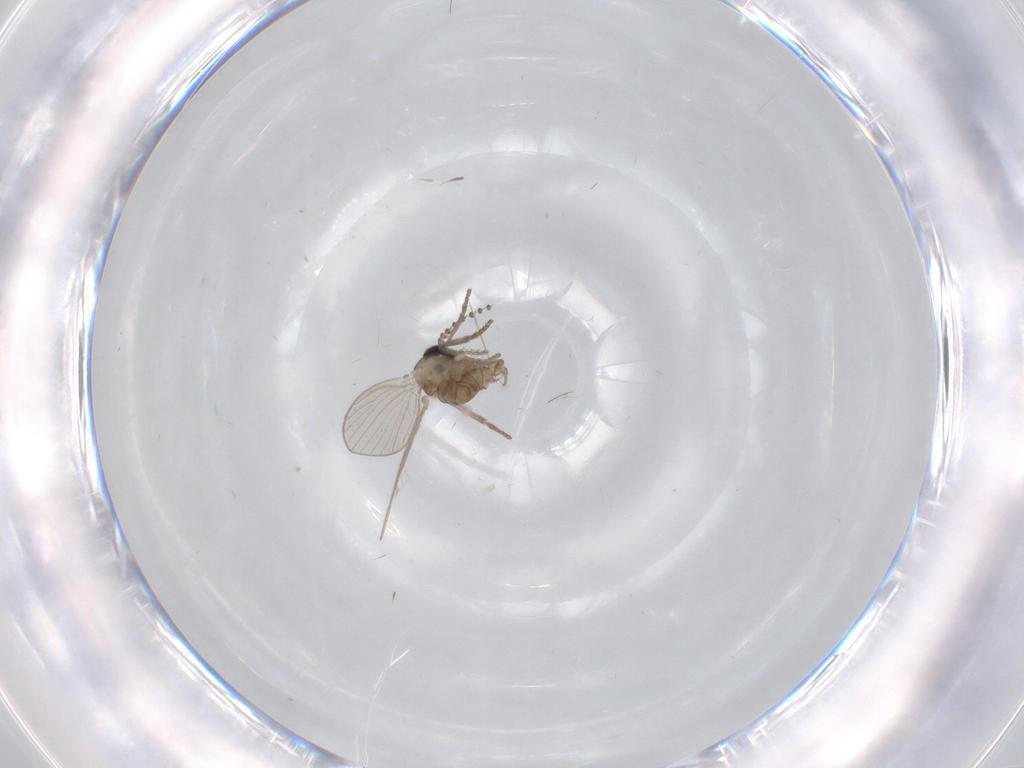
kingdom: Animalia
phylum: Arthropoda
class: Insecta
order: Diptera
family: Psychodidae
